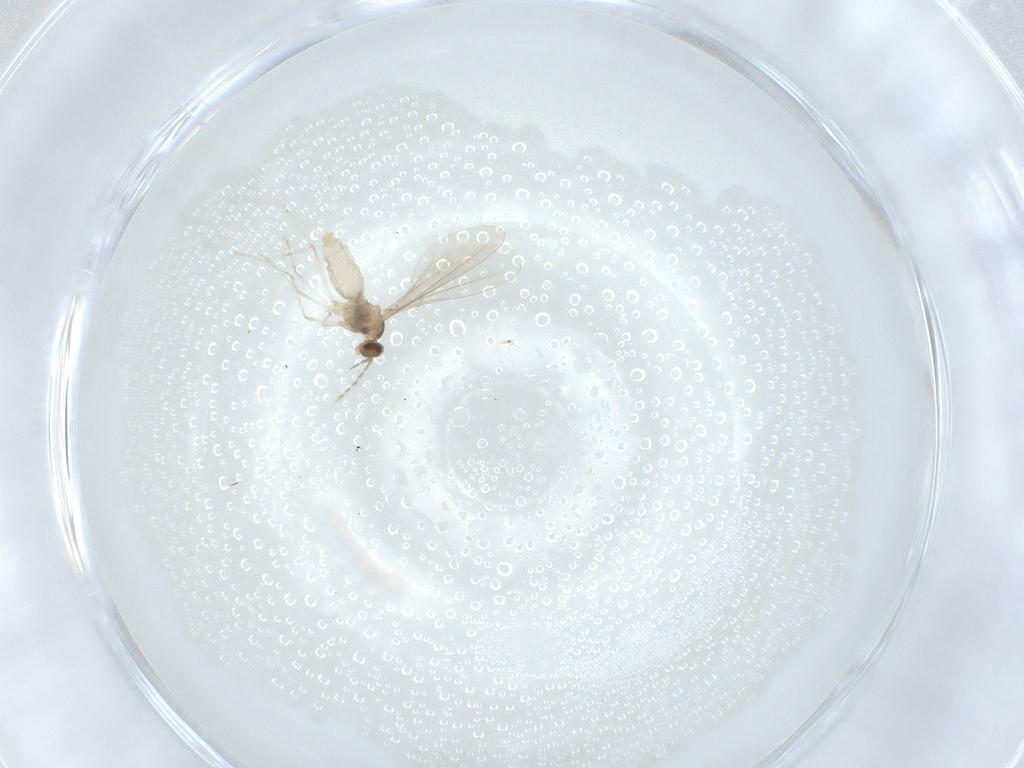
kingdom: Animalia
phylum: Arthropoda
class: Insecta
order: Diptera
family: Cecidomyiidae
